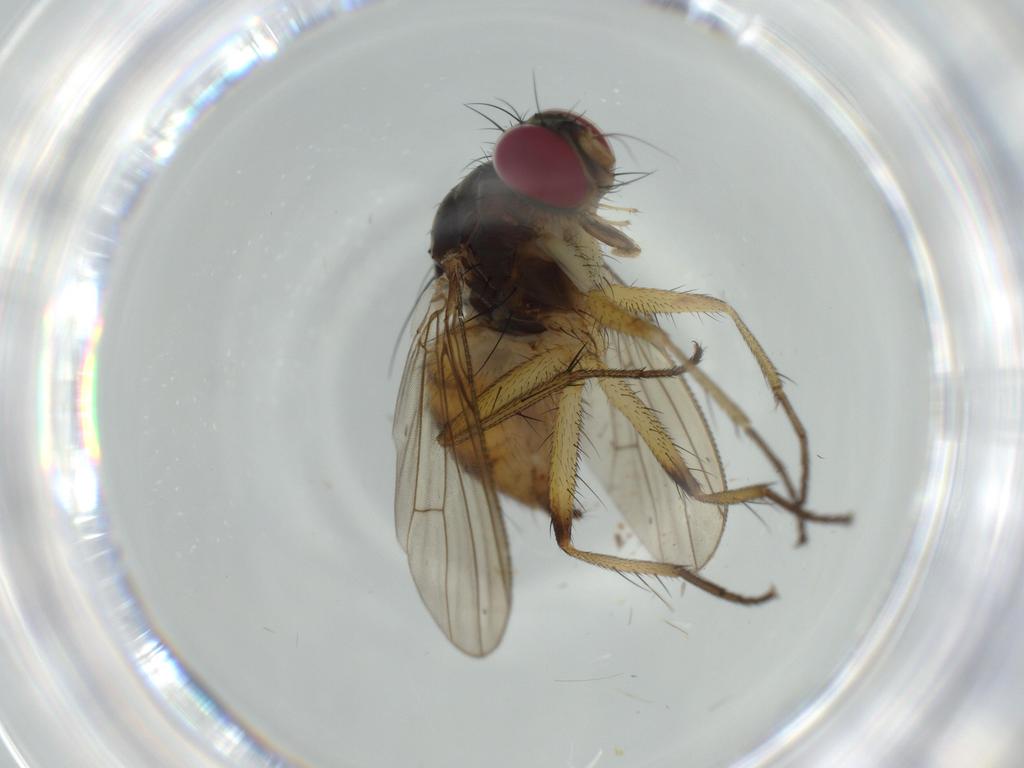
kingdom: Animalia
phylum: Arthropoda
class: Insecta
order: Diptera
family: Muscidae
